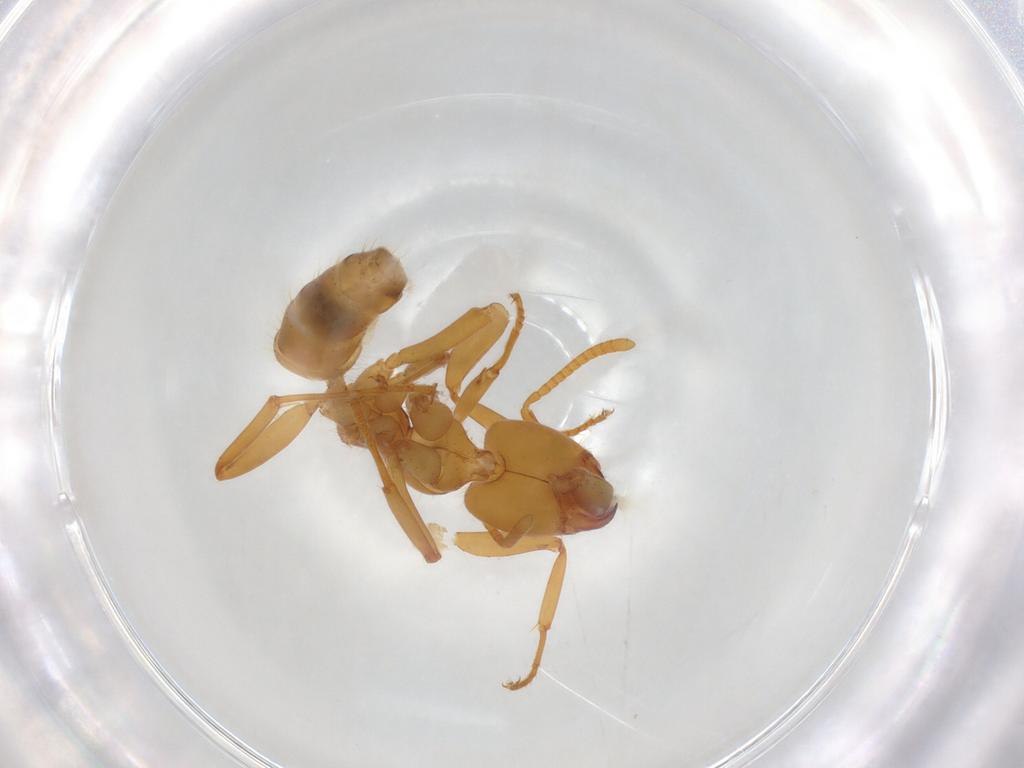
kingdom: Animalia
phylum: Arthropoda
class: Insecta
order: Hymenoptera
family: Formicidae
